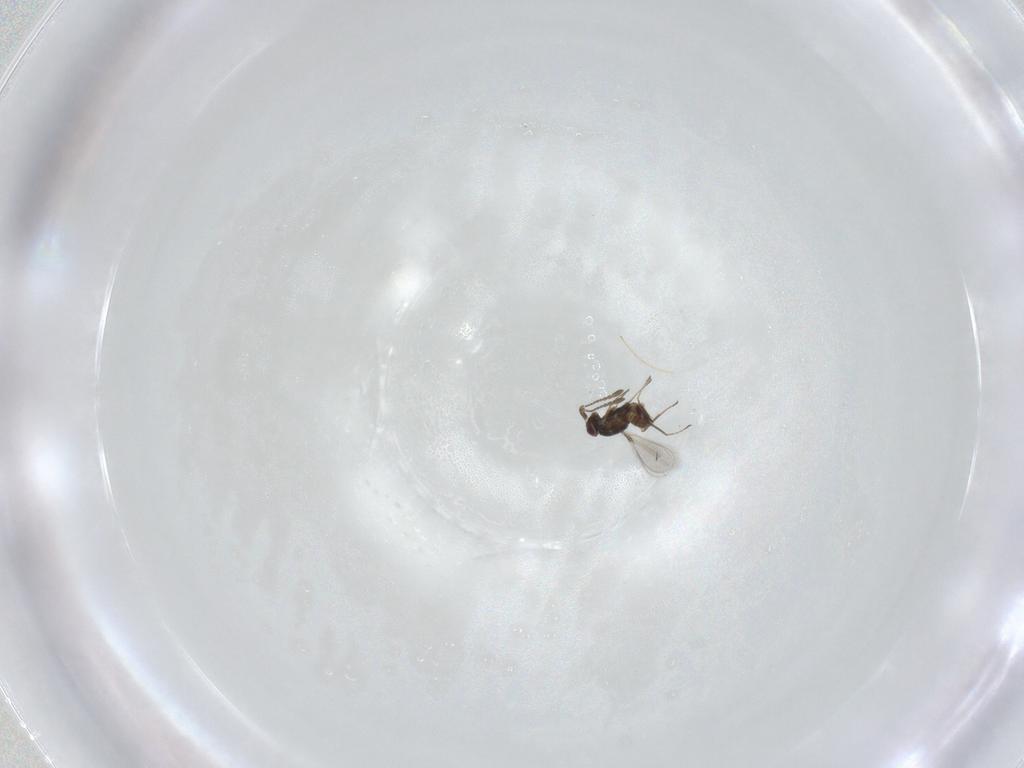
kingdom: Animalia
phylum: Arthropoda
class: Insecta
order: Hymenoptera
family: Mymaridae
